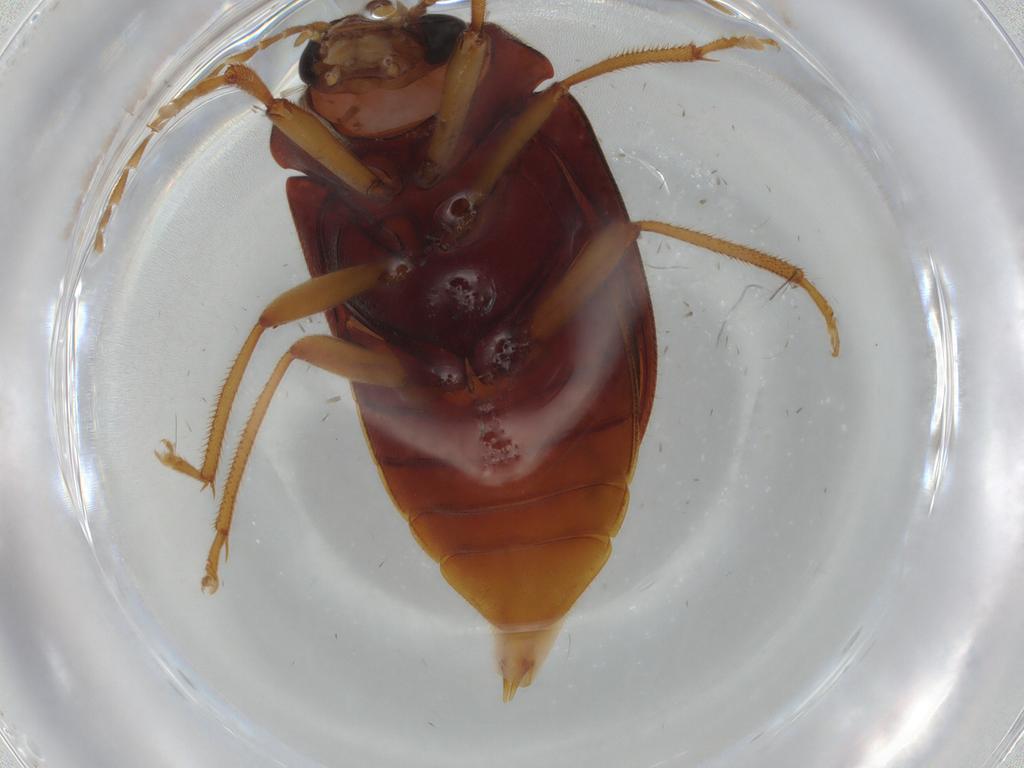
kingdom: Animalia
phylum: Arthropoda
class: Insecta
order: Coleoptera
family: Ptilodactylidae
